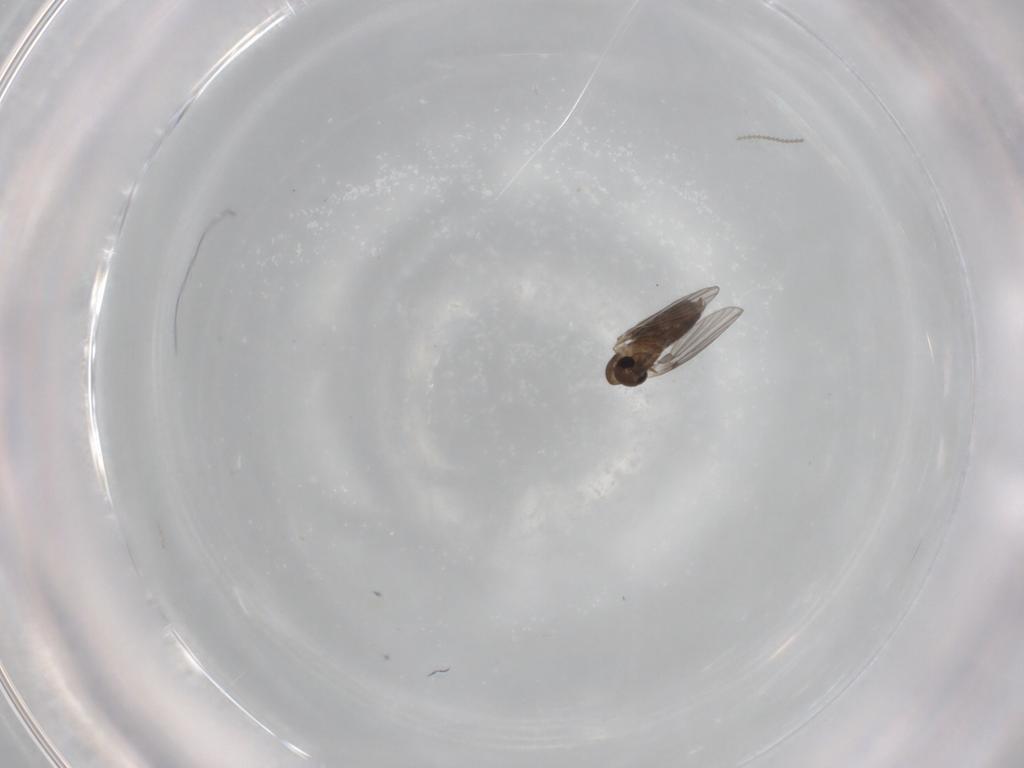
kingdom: Animalia
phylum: Arthropoda
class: Insecta
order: Diptera
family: Cecidomyiidae
